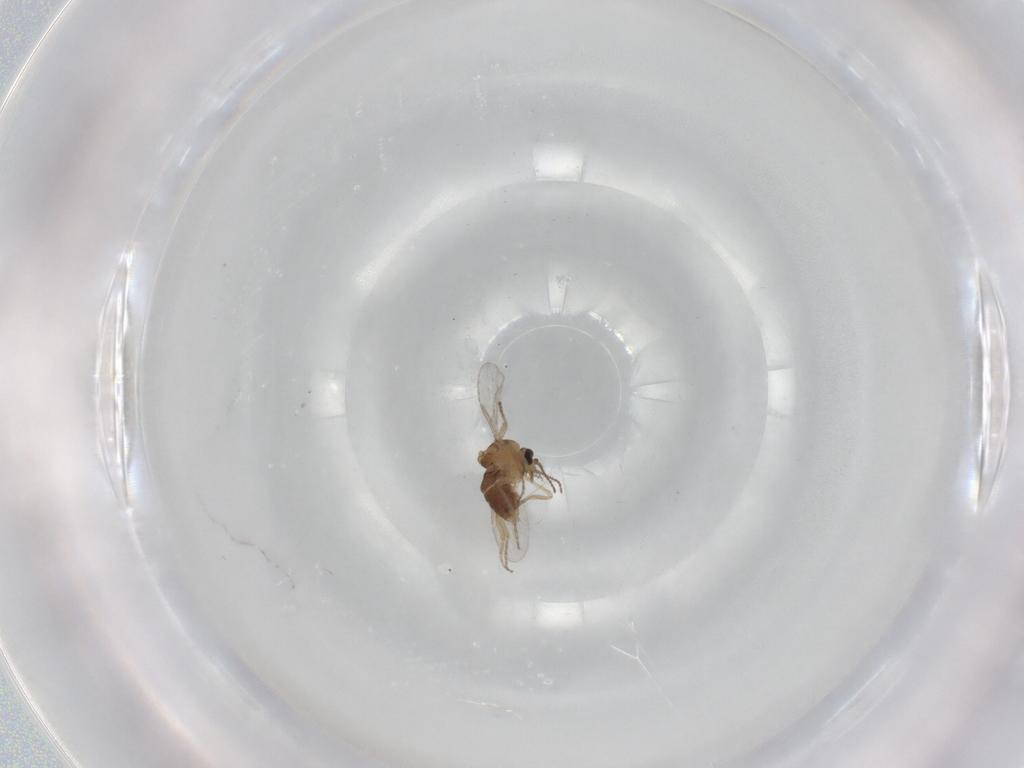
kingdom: Animalia
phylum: Arthropoda
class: Insecta
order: Diptera
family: Ceratopogonidae
